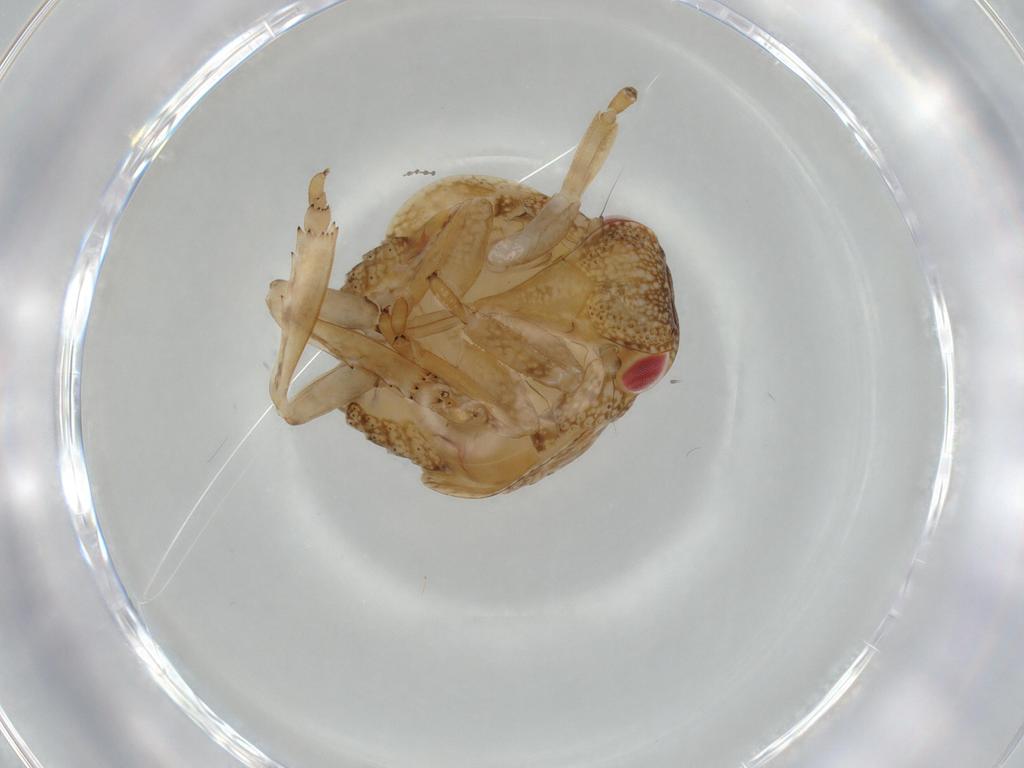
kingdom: Animalia
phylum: Arthropoda
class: Insecta
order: Hemiptera
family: Acanaloniidae
